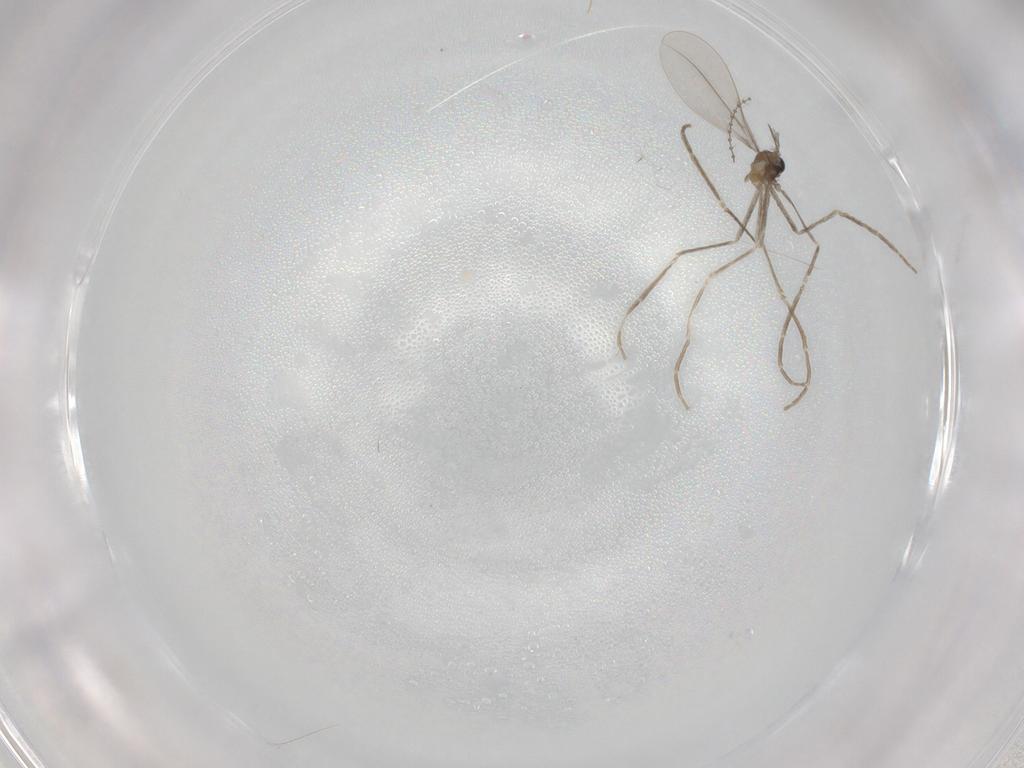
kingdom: Animalia
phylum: Arthropoda
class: Insecta
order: Diptera
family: Cecidomyiidae
